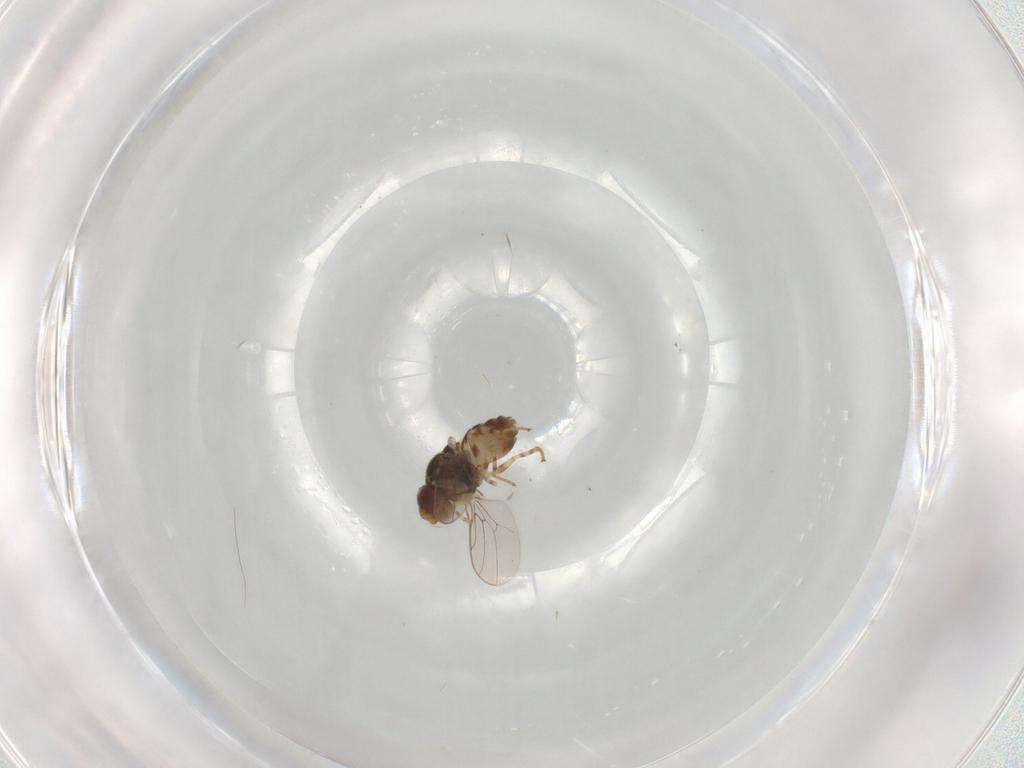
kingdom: Animalia
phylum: Arthropoda
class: Insecta
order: Diptera
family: Chloropidae
